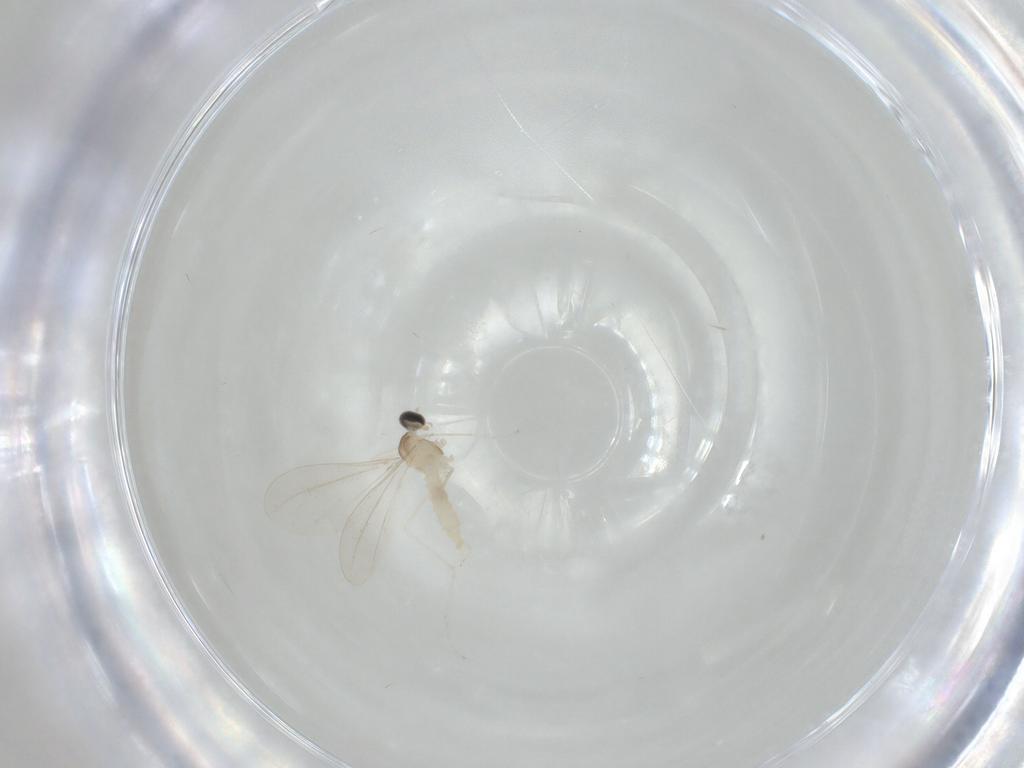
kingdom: Animalia
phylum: Arthropoda
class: Insecta
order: Diptera
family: Cecidomyiidae
